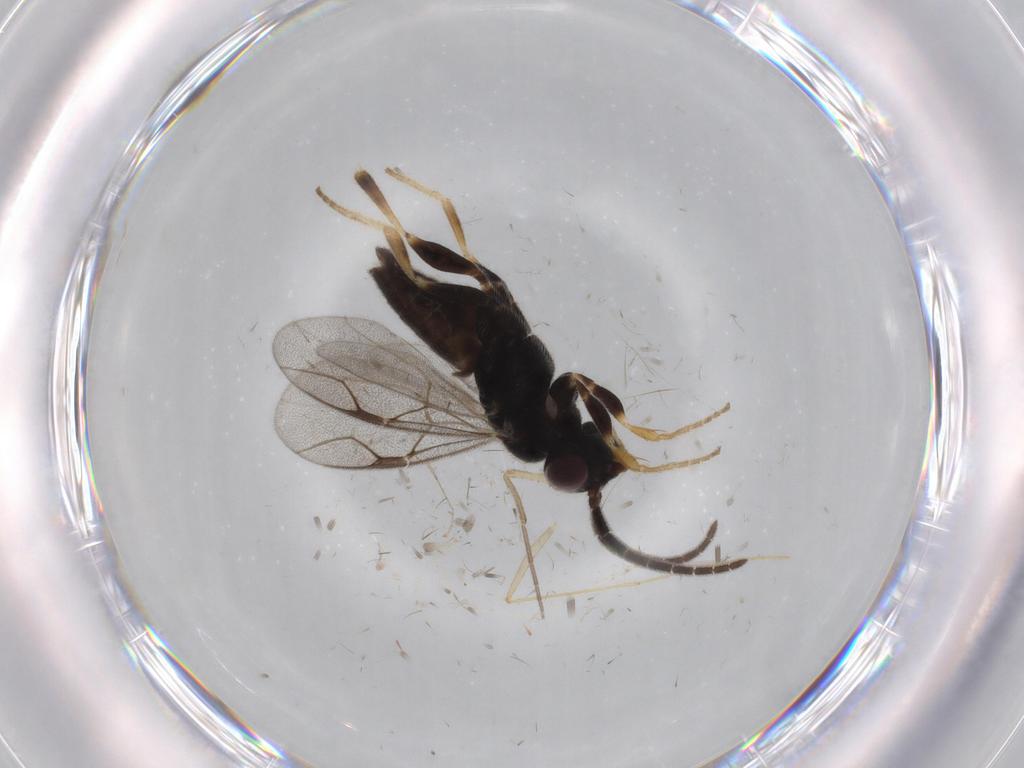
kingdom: Animalia
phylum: Arthropoda
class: Insecta
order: Hymenoptera
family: Dryinidae
